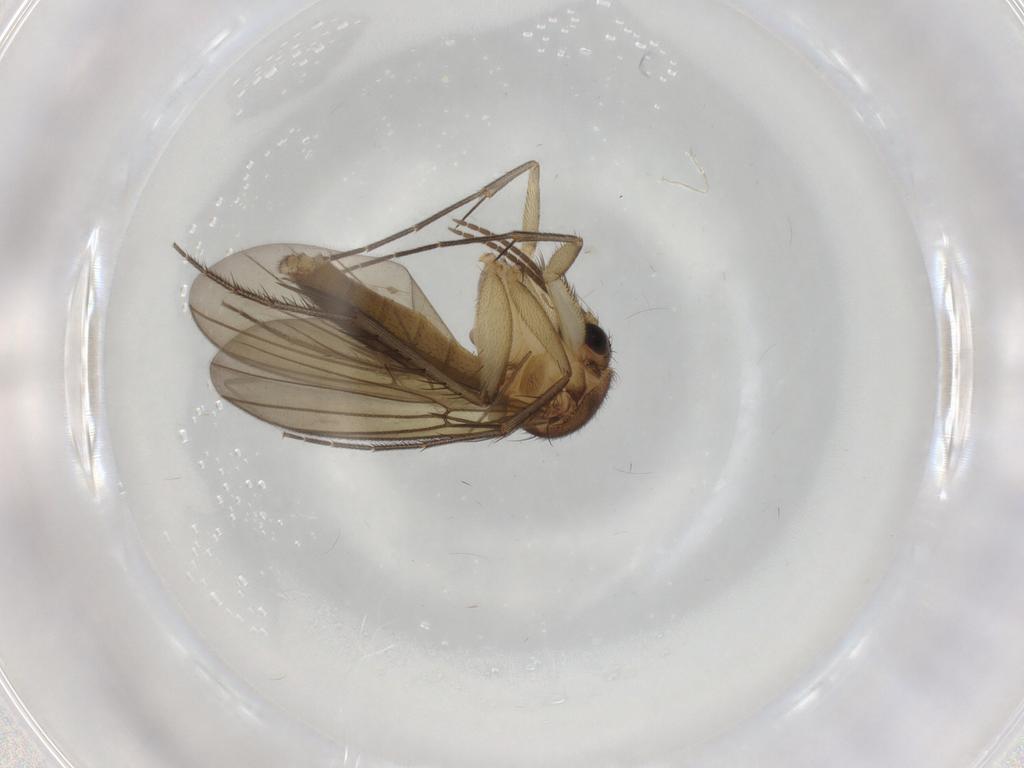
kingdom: Animalia
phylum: Arthropoda
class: Insecta
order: Diptera
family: Mycetophilidae
